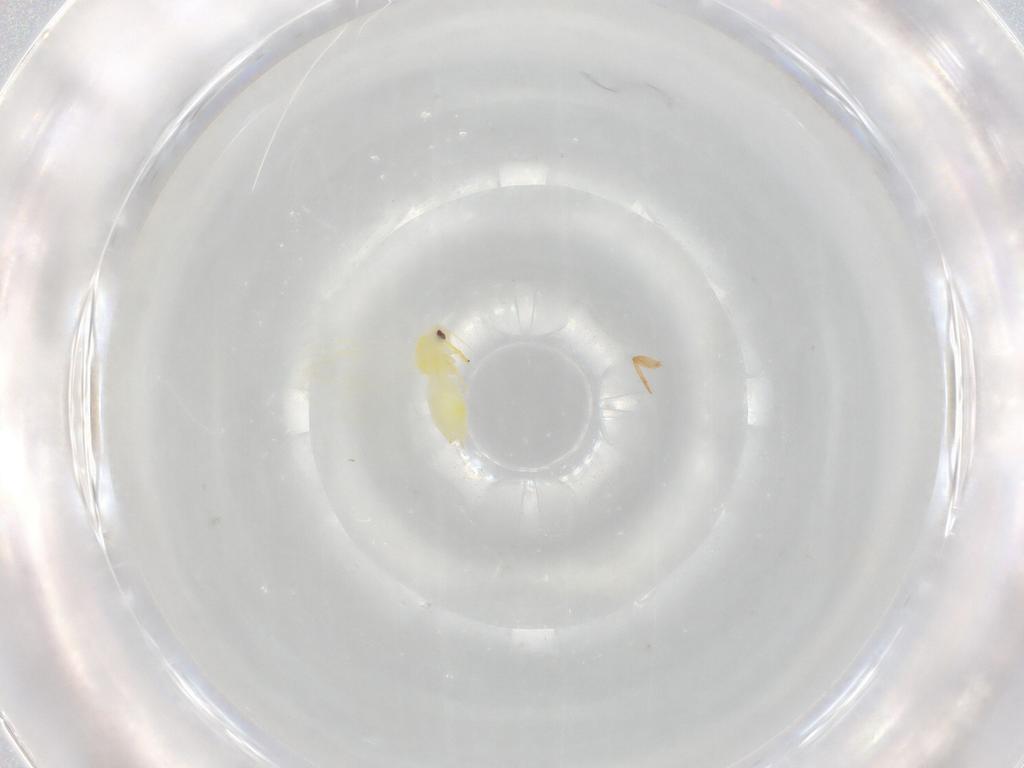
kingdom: Animalia
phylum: Arthropoda
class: Insecta
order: Hemiptera
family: Aleyrodidae
